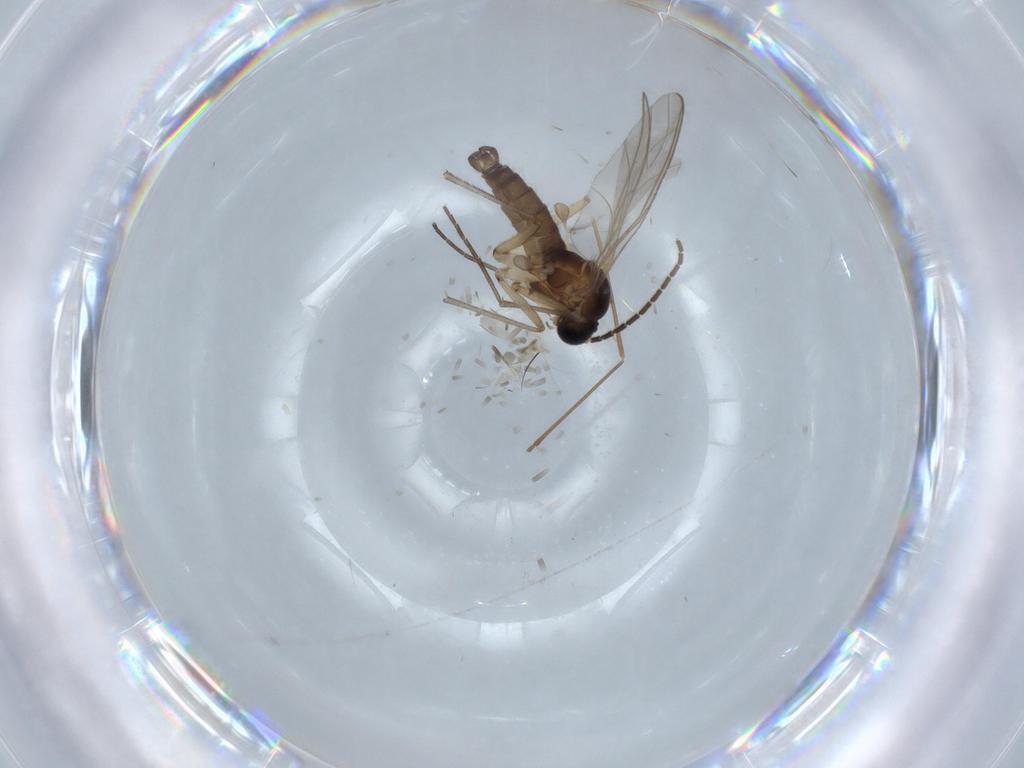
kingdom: Animalia
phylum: Arthropoda
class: Insecta
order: Diptera
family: Sciaridae
